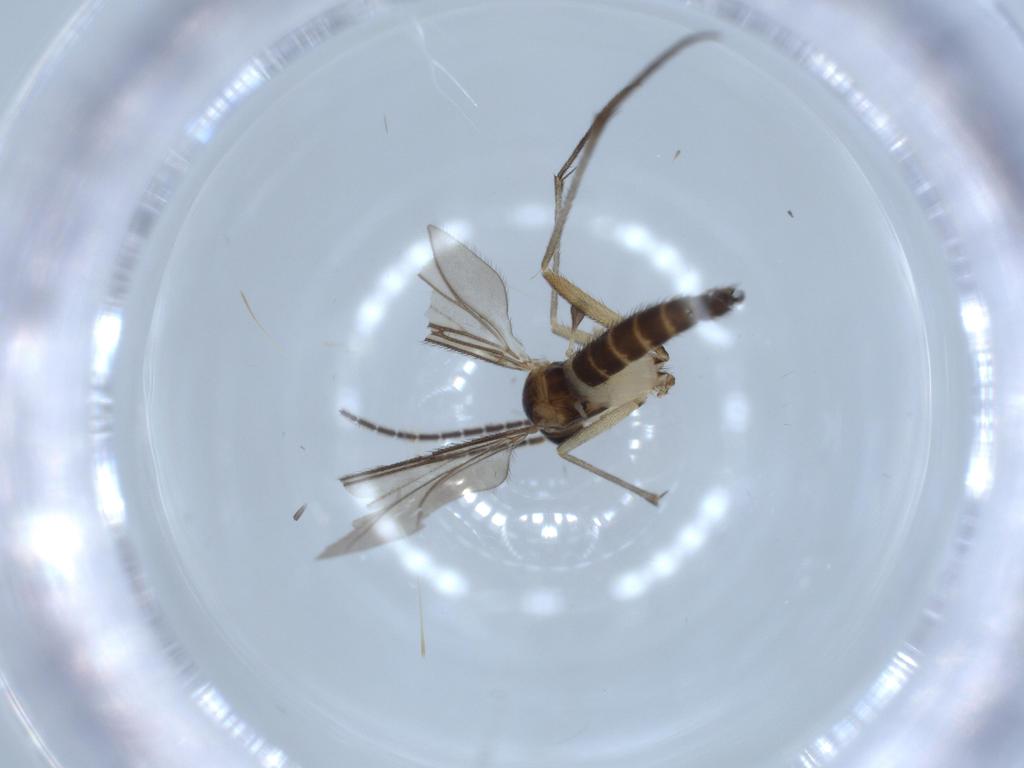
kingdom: Animalia
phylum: Arthropoda
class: Insecta
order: Diptera
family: Sciaridae
